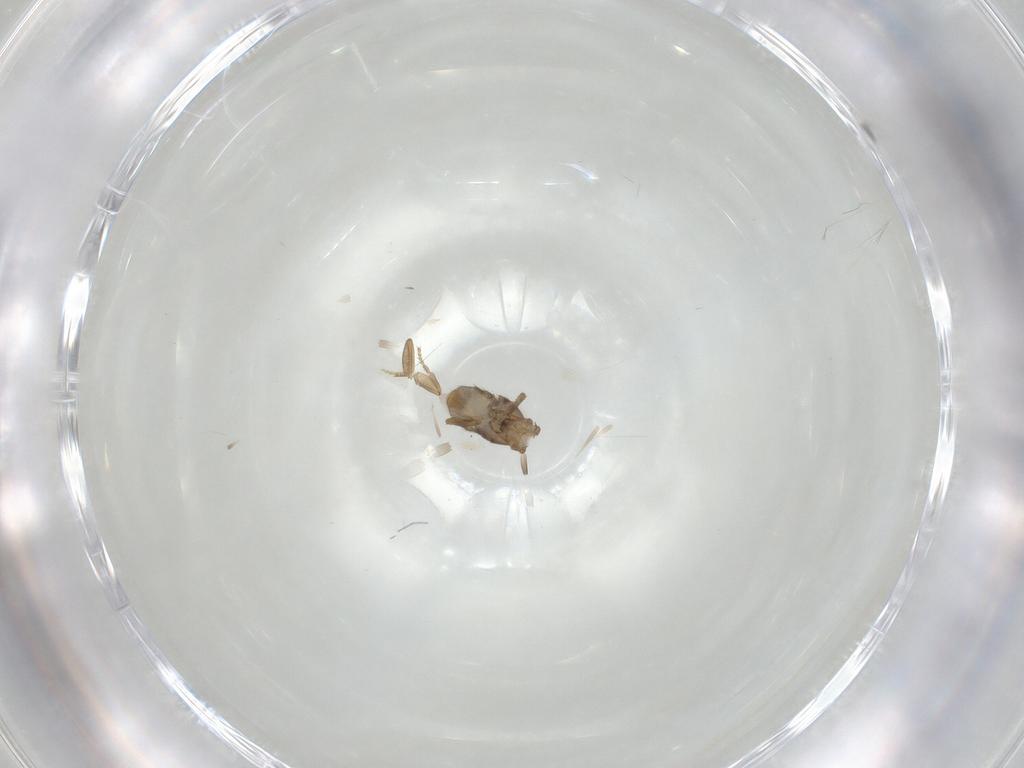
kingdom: Animalia
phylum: Arthropoda
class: Insecta
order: Diptera
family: Phoridae
